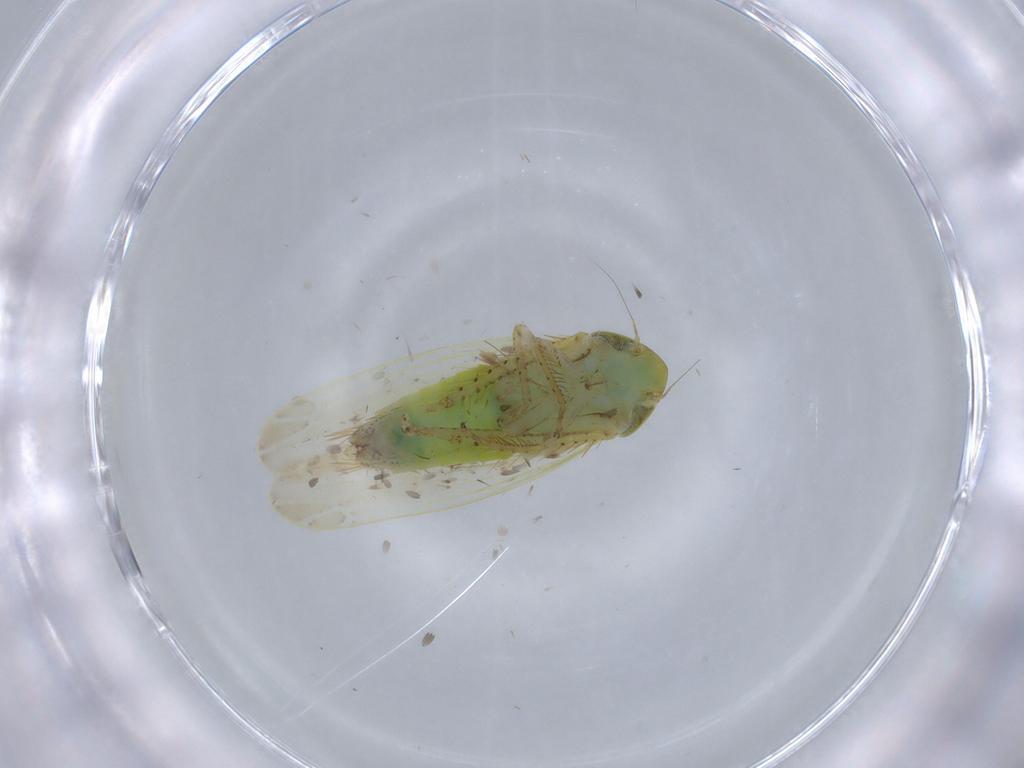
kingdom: Animalia
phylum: Arthropoda
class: Insecta
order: Hemiptera
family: Cicadellidae
